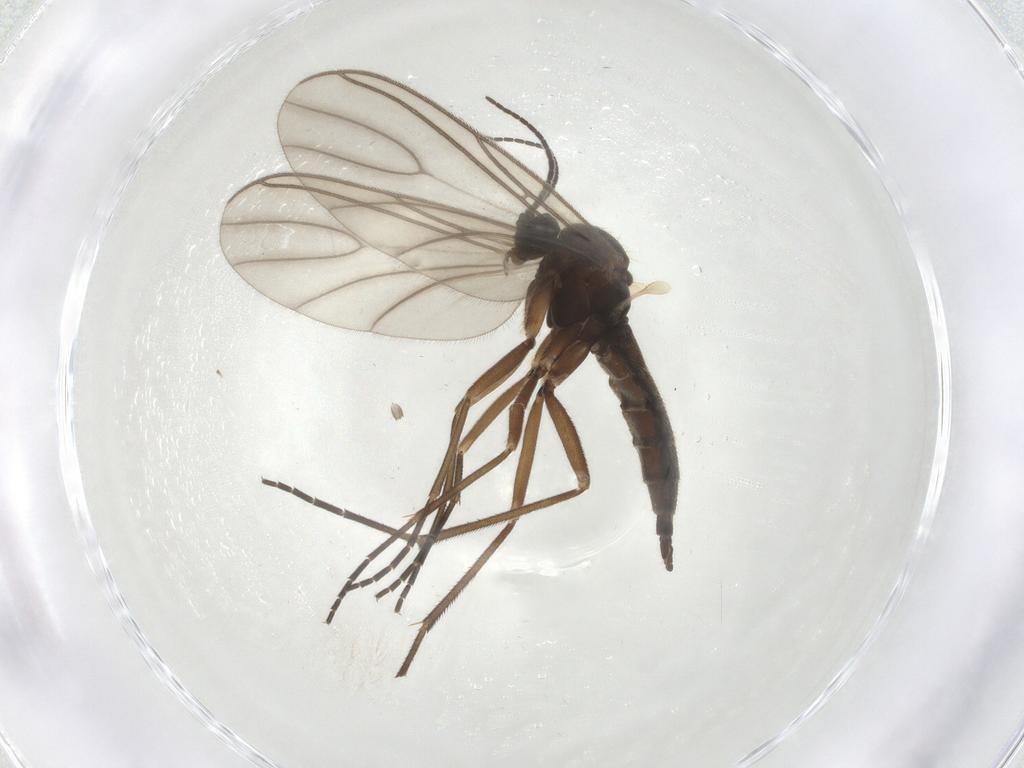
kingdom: Animalia
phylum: Arthropoda
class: Insecta
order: Diptera
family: Sciaridae
